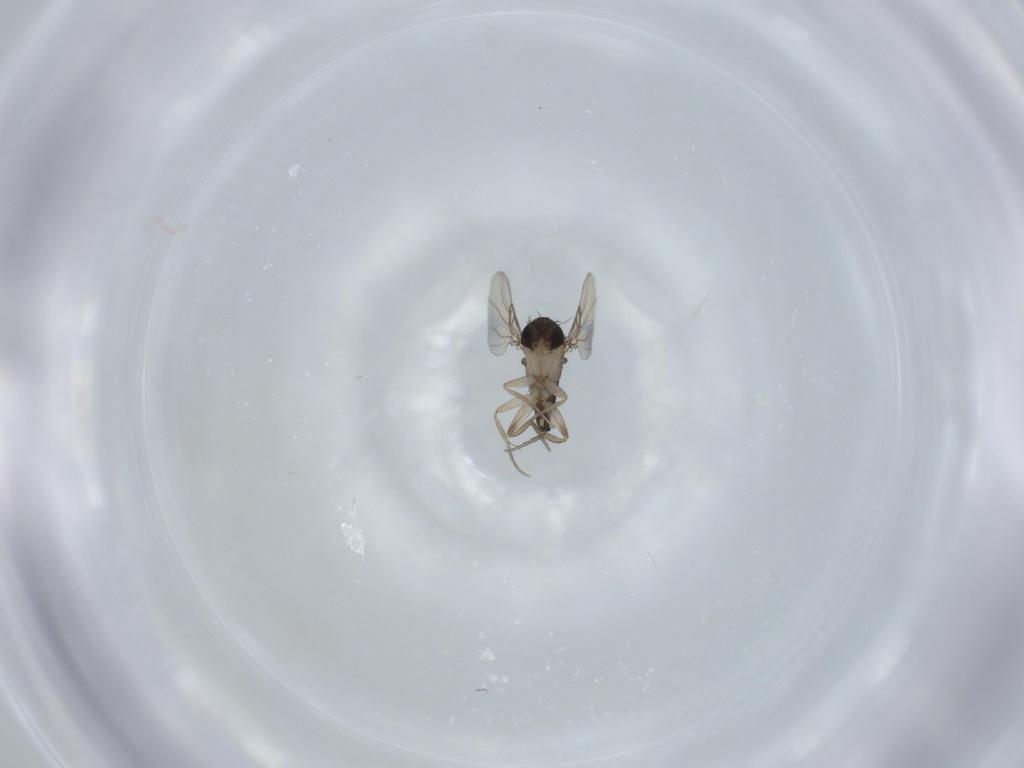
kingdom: Animalia
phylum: Arthropoda
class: Insecta
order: Diptera
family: Phoridae
